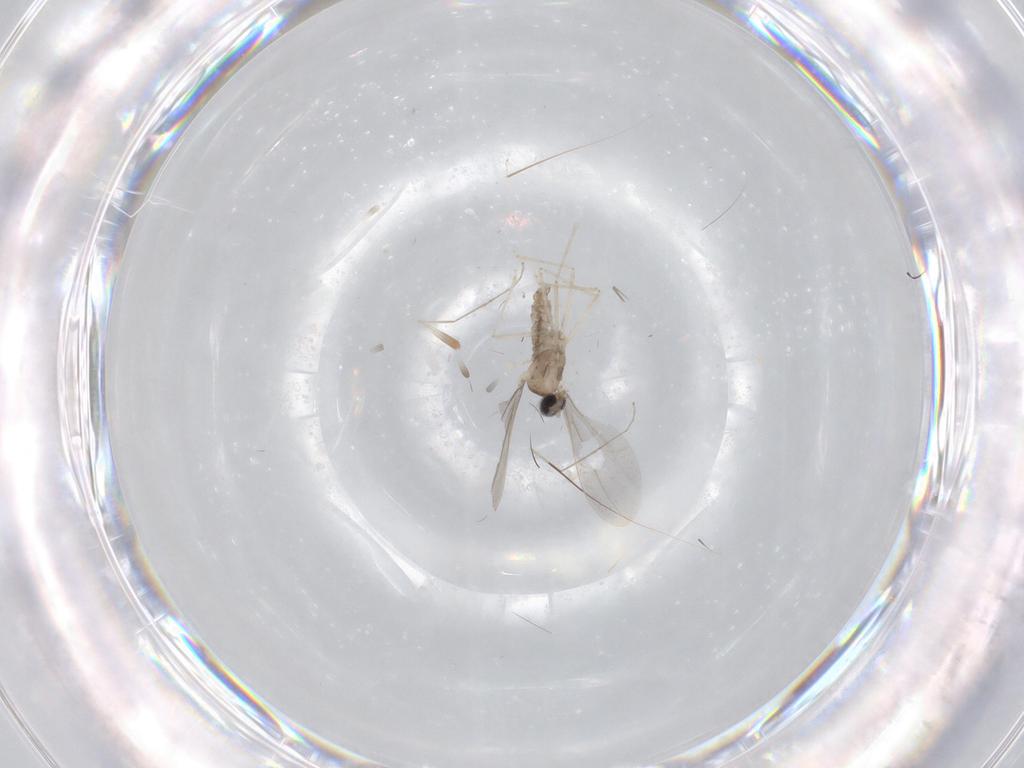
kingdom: Animalia
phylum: Arthropoda
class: Insecta
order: Diptera
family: Cecidomyiidae
